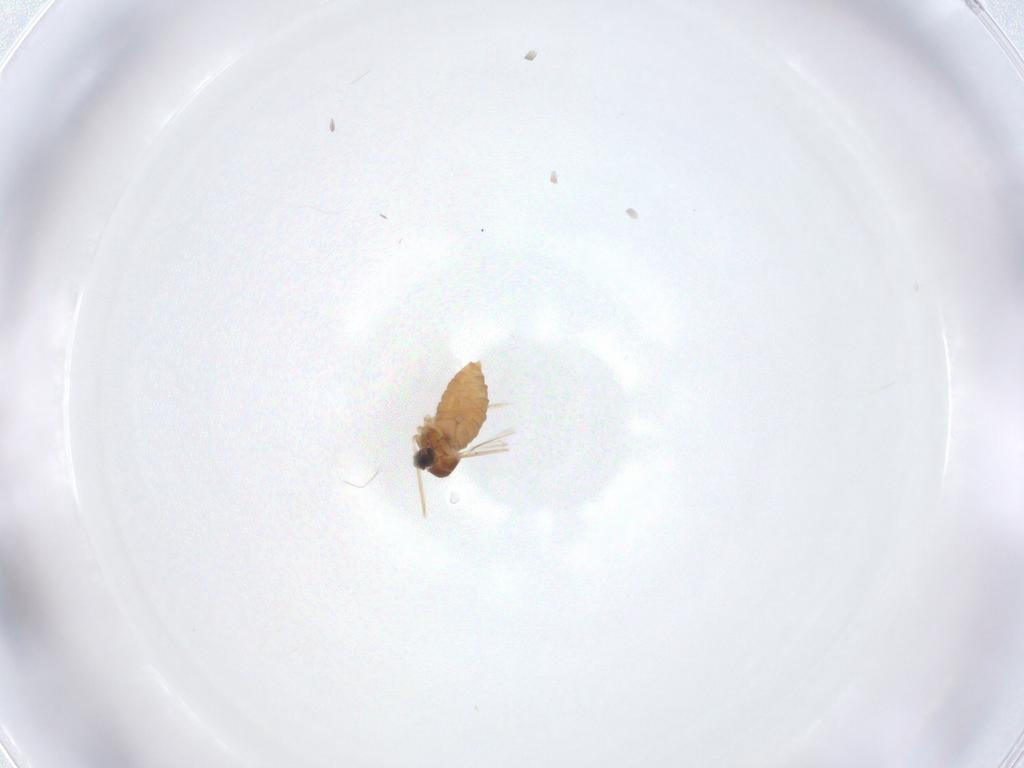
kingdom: Animalia
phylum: Arthropoda
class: Insecta
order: Diptera
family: Cecidomyiidae
